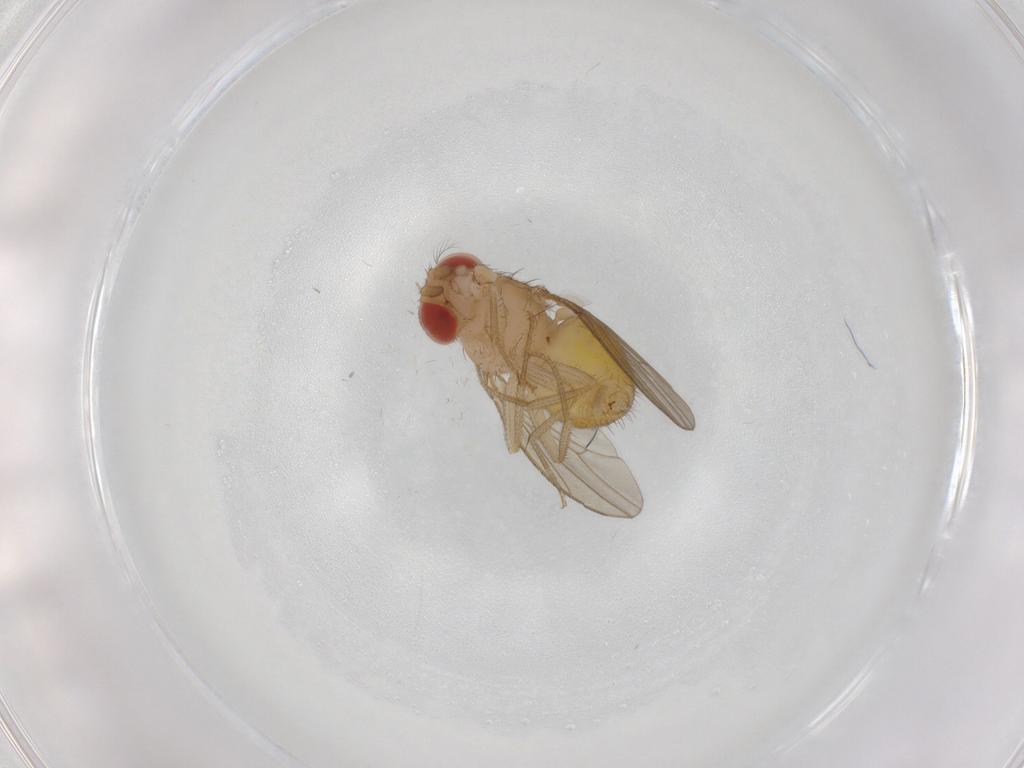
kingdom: Animalia
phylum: Arthropoda
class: Insecta
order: Diptera
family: Drosophilidae
